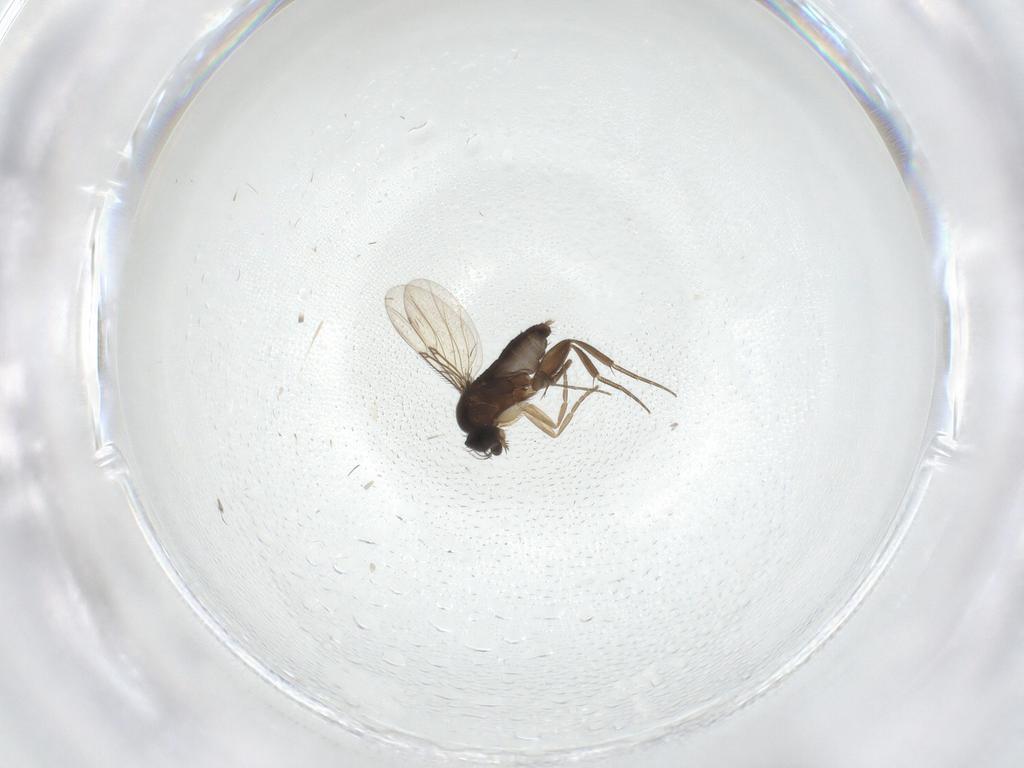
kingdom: Animalia
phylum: Arthropoda
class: Insecta
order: Diptera
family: Phoridae
